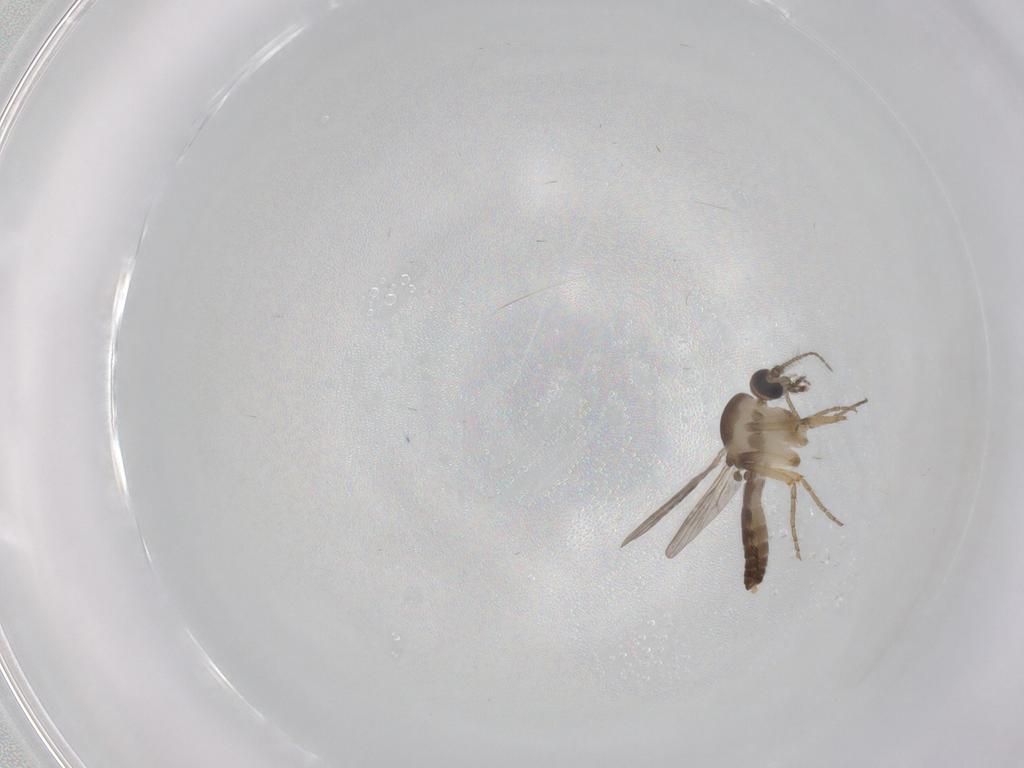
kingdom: Animalia
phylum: Arthropoda
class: Insecta
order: Diptera
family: Ceratopogonidae
